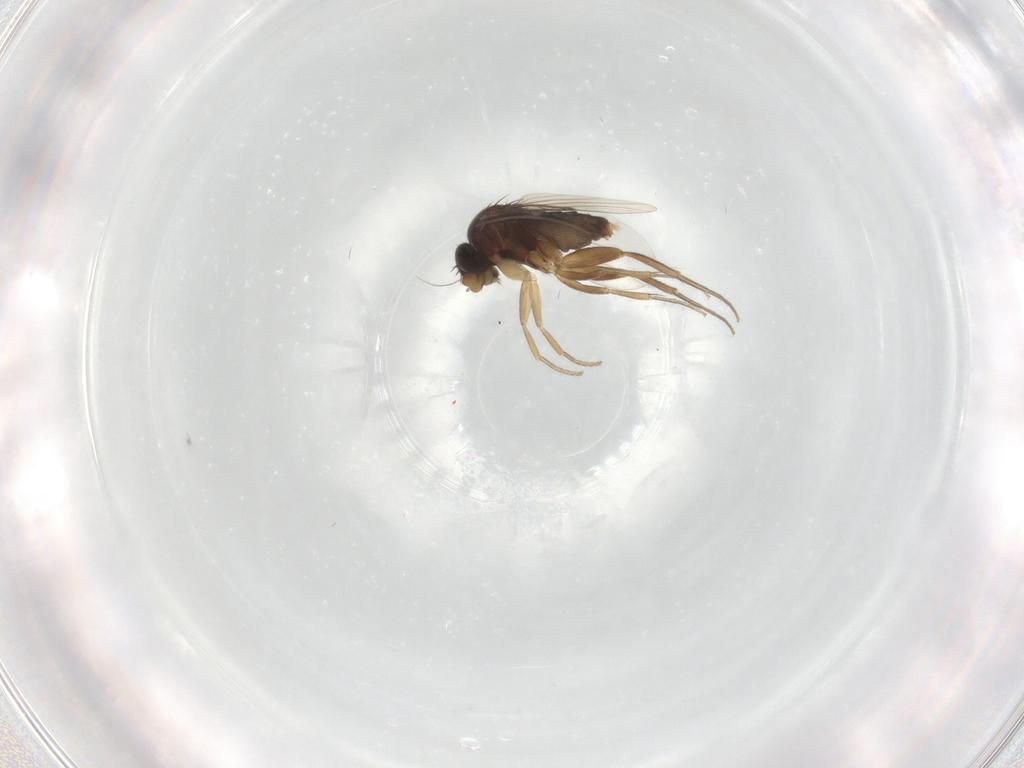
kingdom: Animalia
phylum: Arthropoda
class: Insecta
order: Diptera
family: Phoridae
